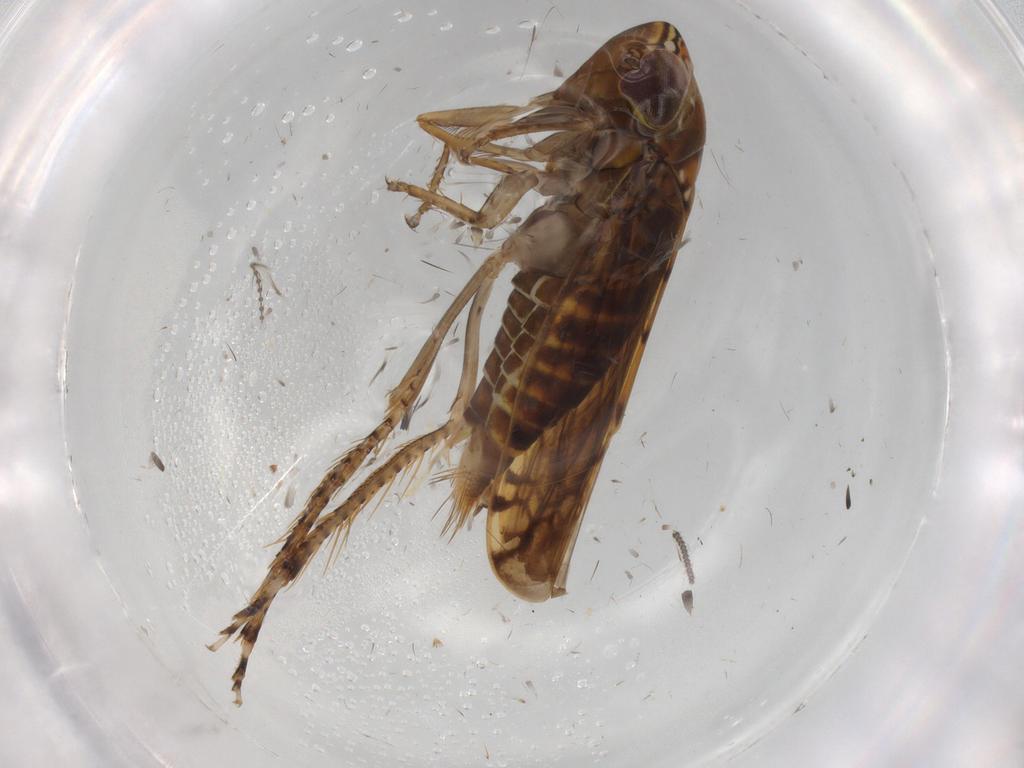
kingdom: Animalia
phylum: Arthropoda
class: Insecta
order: Hemiptera
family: Cicadellidae
